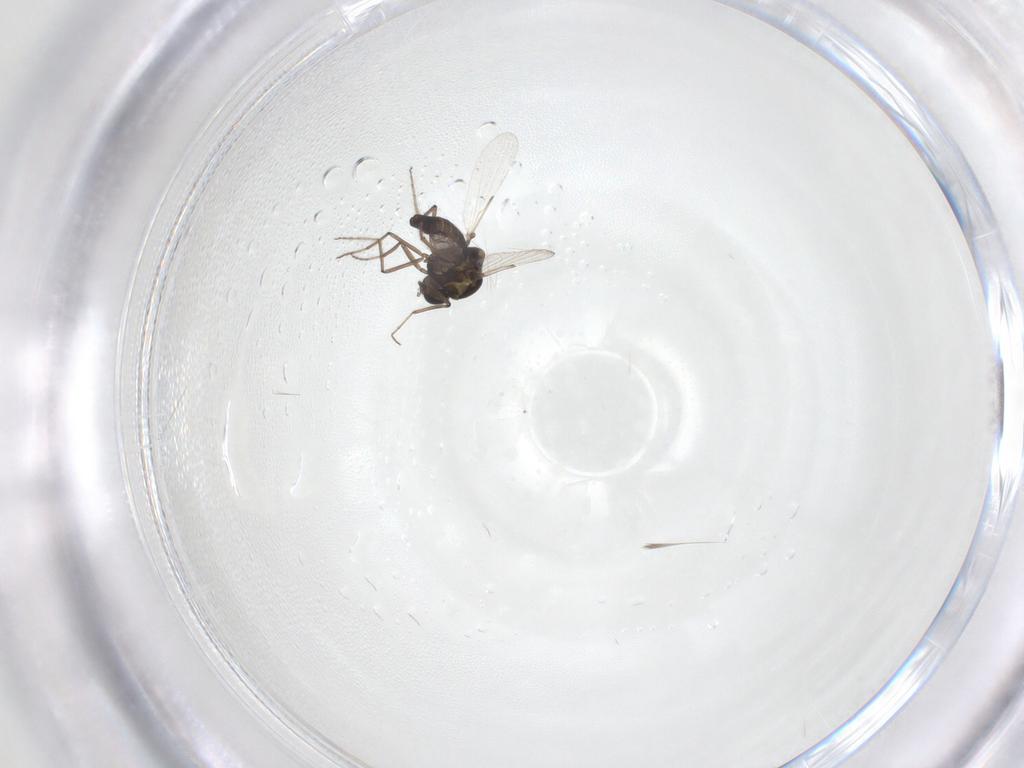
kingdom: Animalia
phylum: Arthropoda
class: Insecta
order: Diptera
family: Ceratopogonidae
